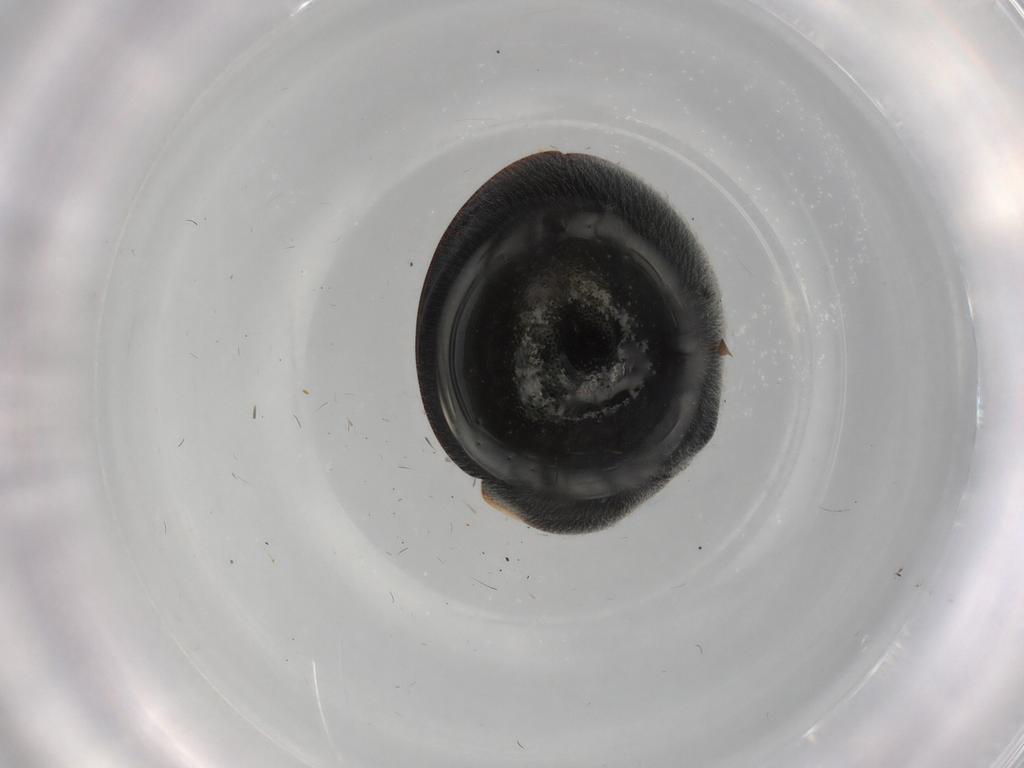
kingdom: Animalia
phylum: Arthropoda
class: Insecta
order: Coleoptera
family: Oedemeridae
